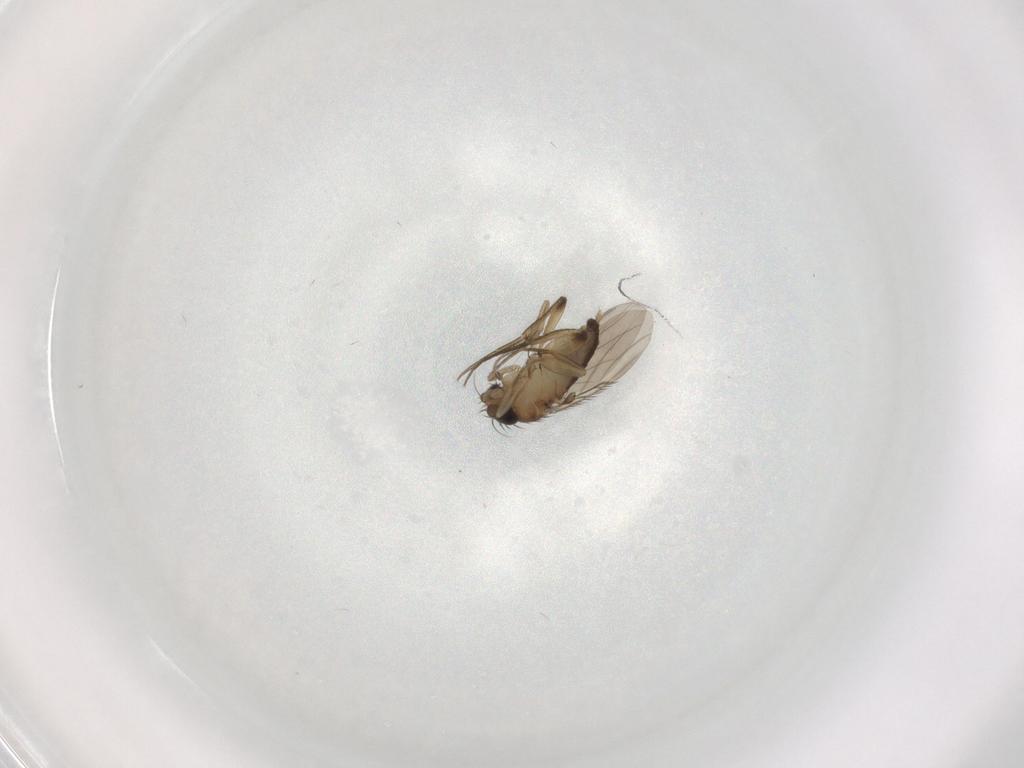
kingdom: Animalia
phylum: Arthropoda
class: Insecta
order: Diptera
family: Phoridae
